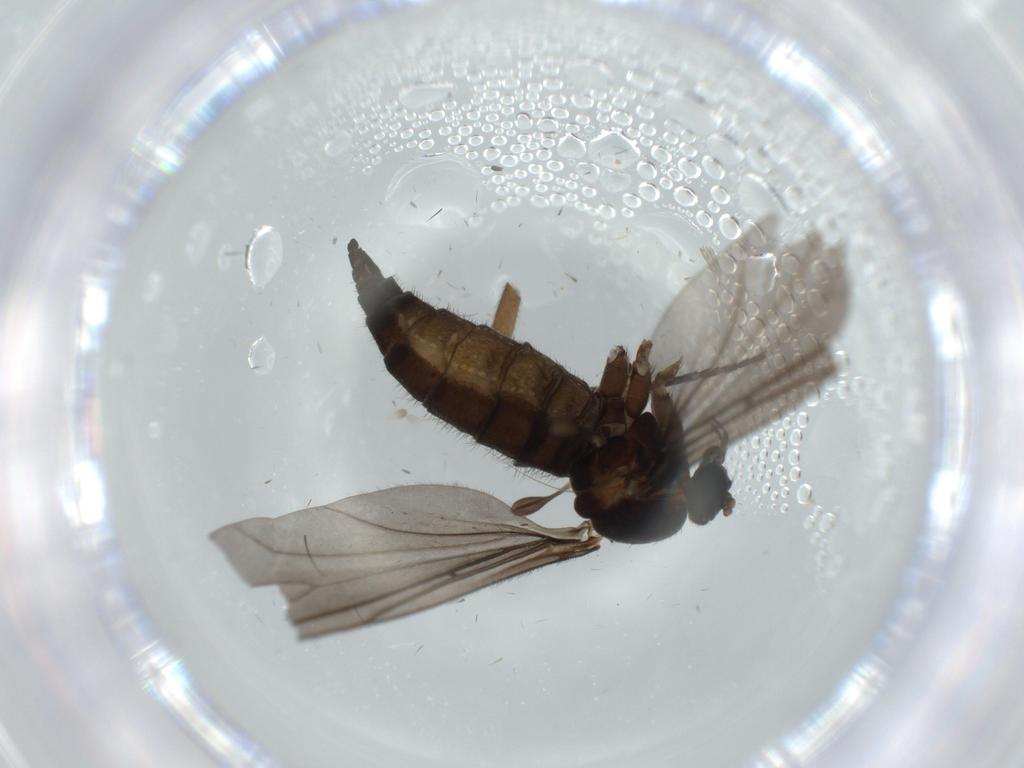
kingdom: Animalia
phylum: Arthropoda
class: Insecta
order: Diptera
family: Sciaridae
